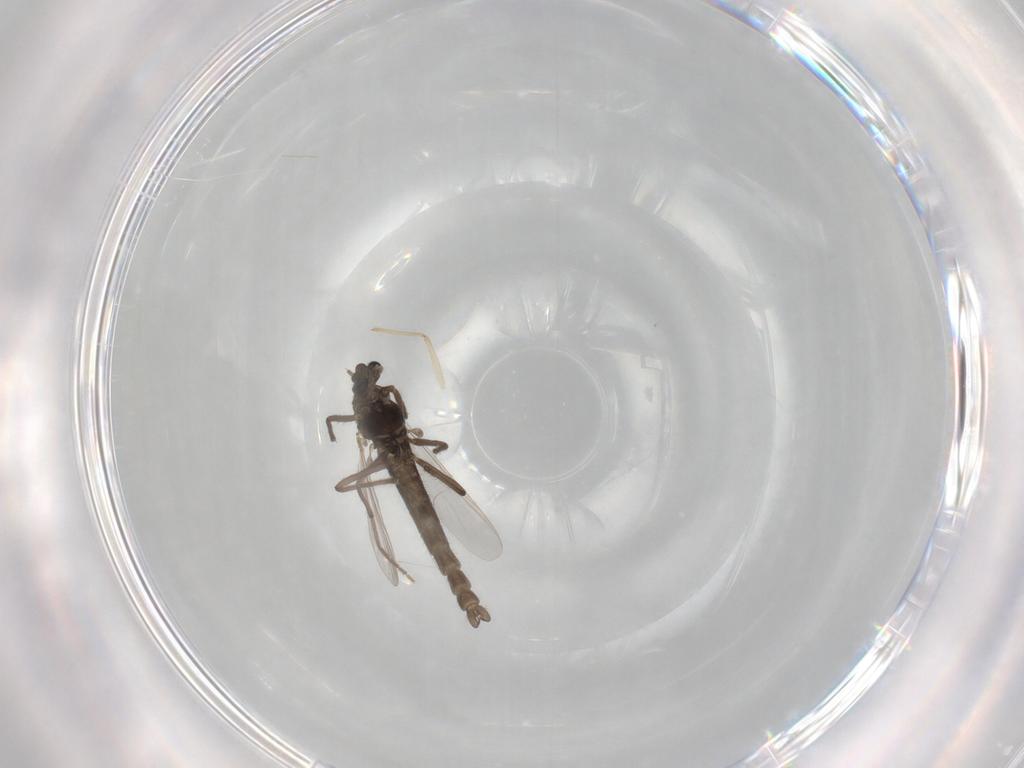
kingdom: Animalia
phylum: Arthropoda
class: Insecta
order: Diptera
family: Chironomidae
